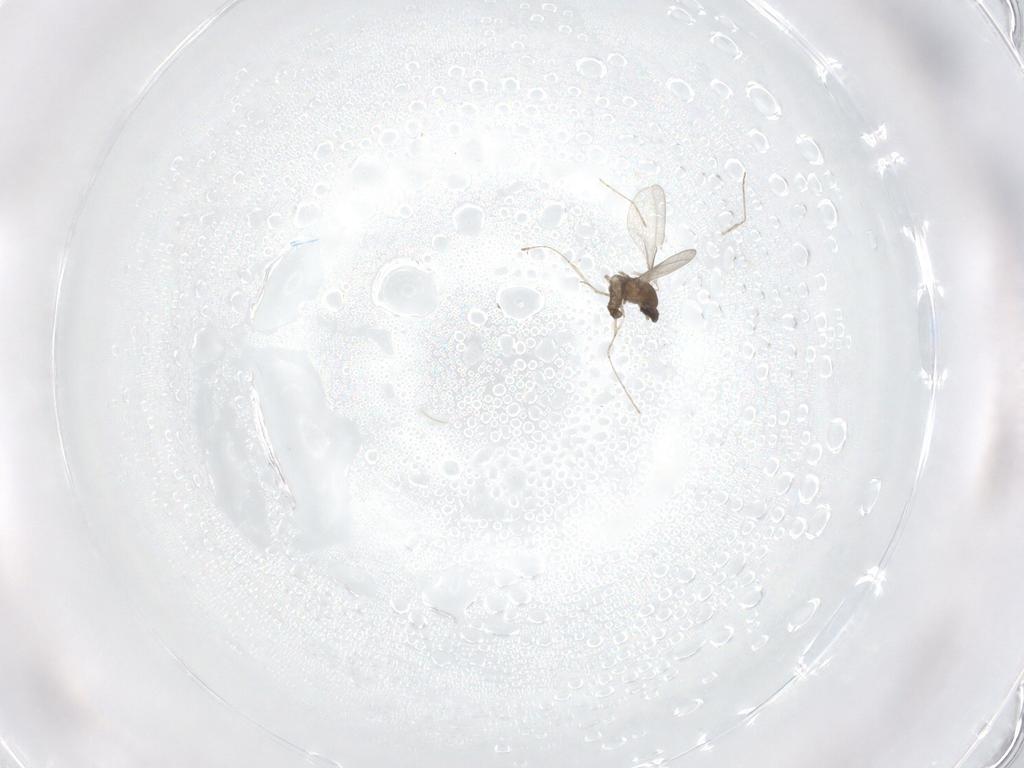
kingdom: Animalia
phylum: Arthropoda
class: Insecta
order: Diptera
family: Cecidomyiidae
